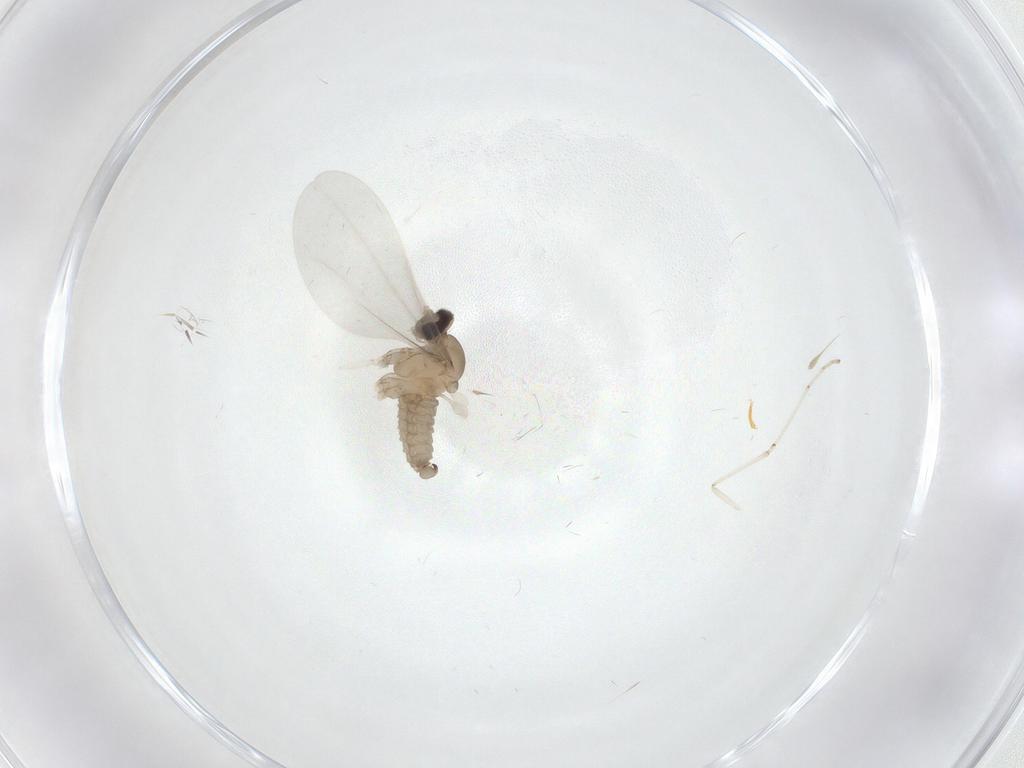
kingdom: Animalia
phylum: Arthropoda
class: Insecta
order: Diptera
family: Cecidomyiidae
